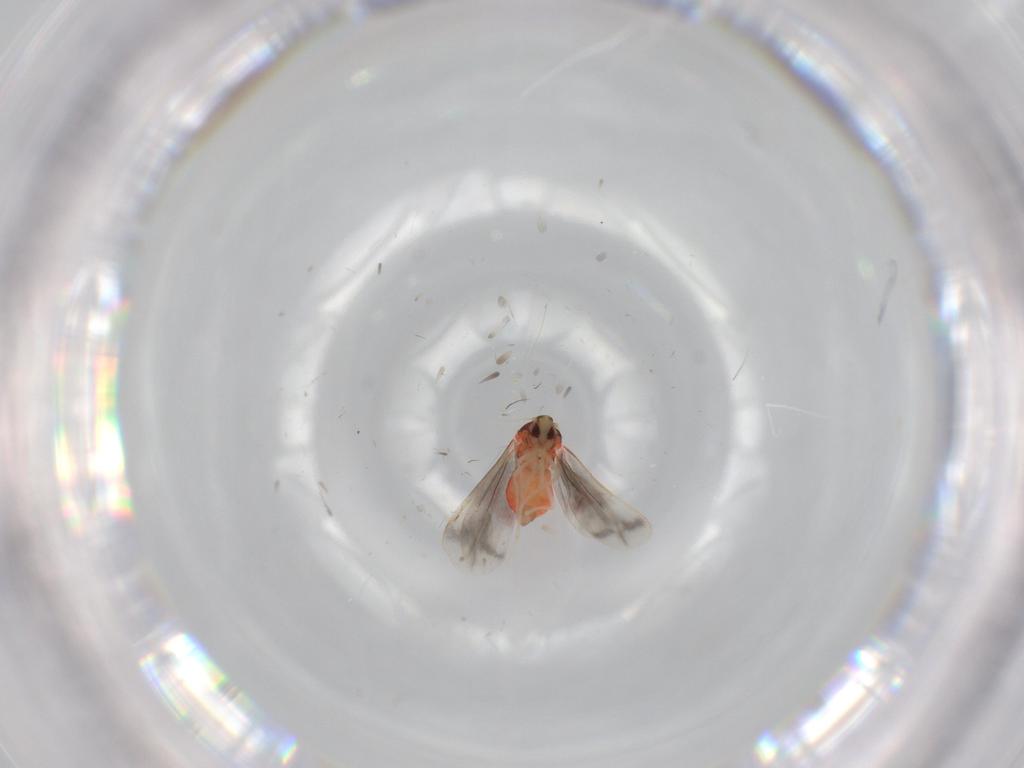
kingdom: Animalia
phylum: Arthropoda
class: Insecta
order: Hemiptera
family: Aleyrodidae
